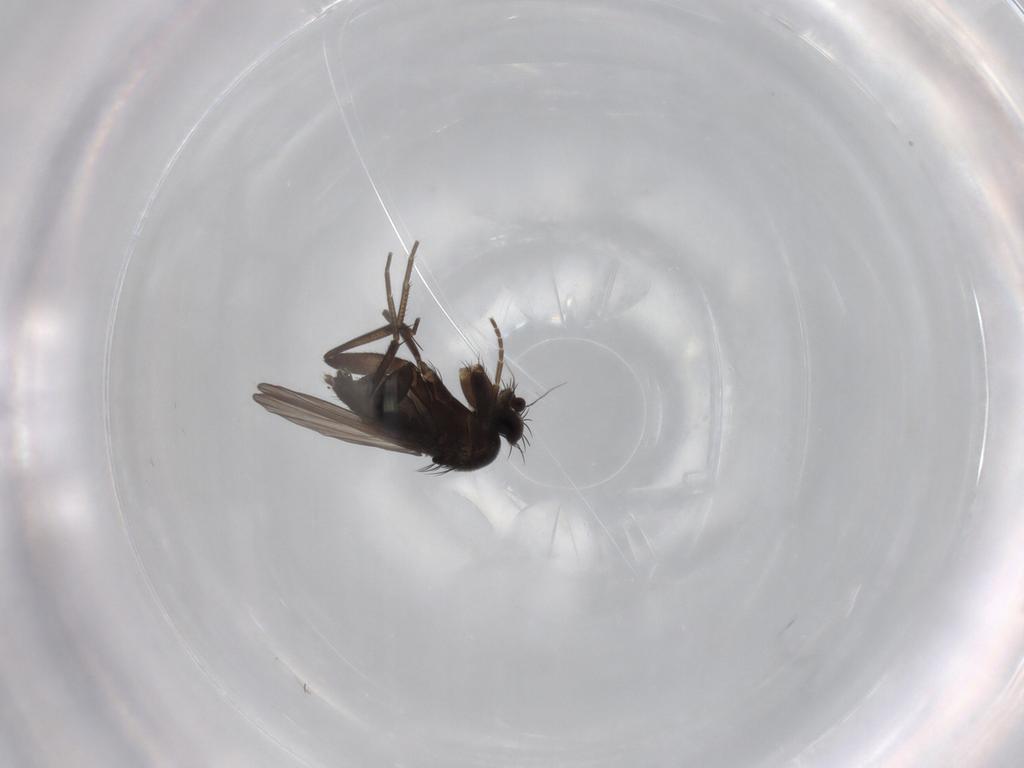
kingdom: Animalia
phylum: Arthropoda
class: Insecta
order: Diptera
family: Phoridae
